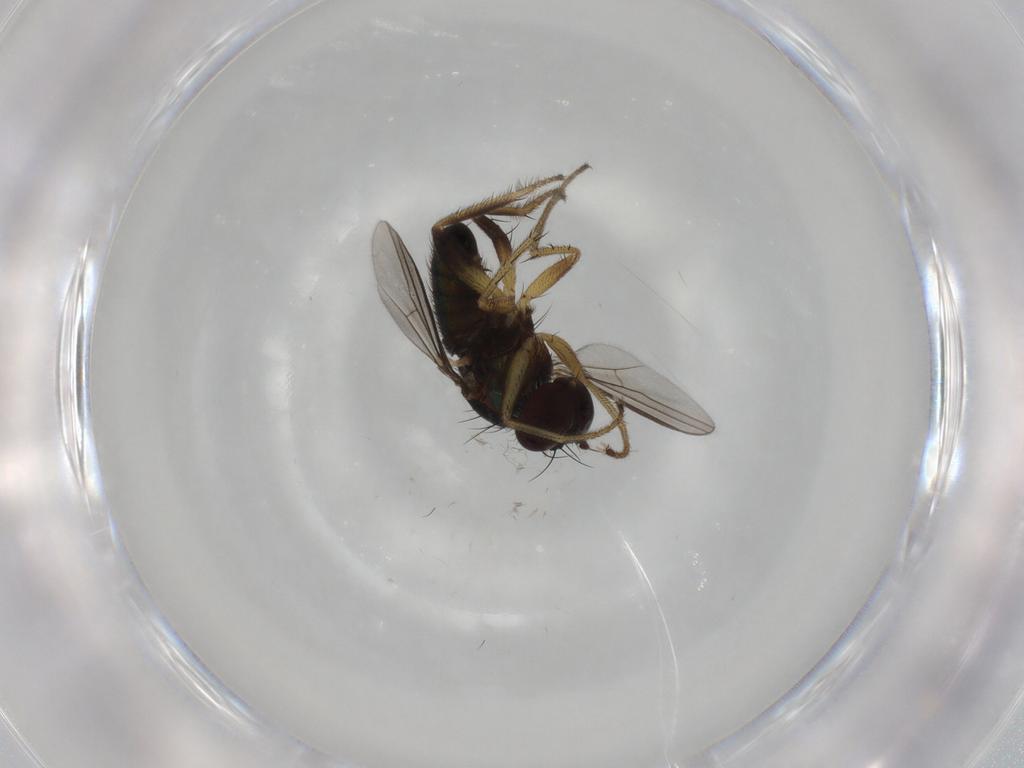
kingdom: Animalia
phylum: Arthropoda
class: Insecta
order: Diptera
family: Dolichopodidae
